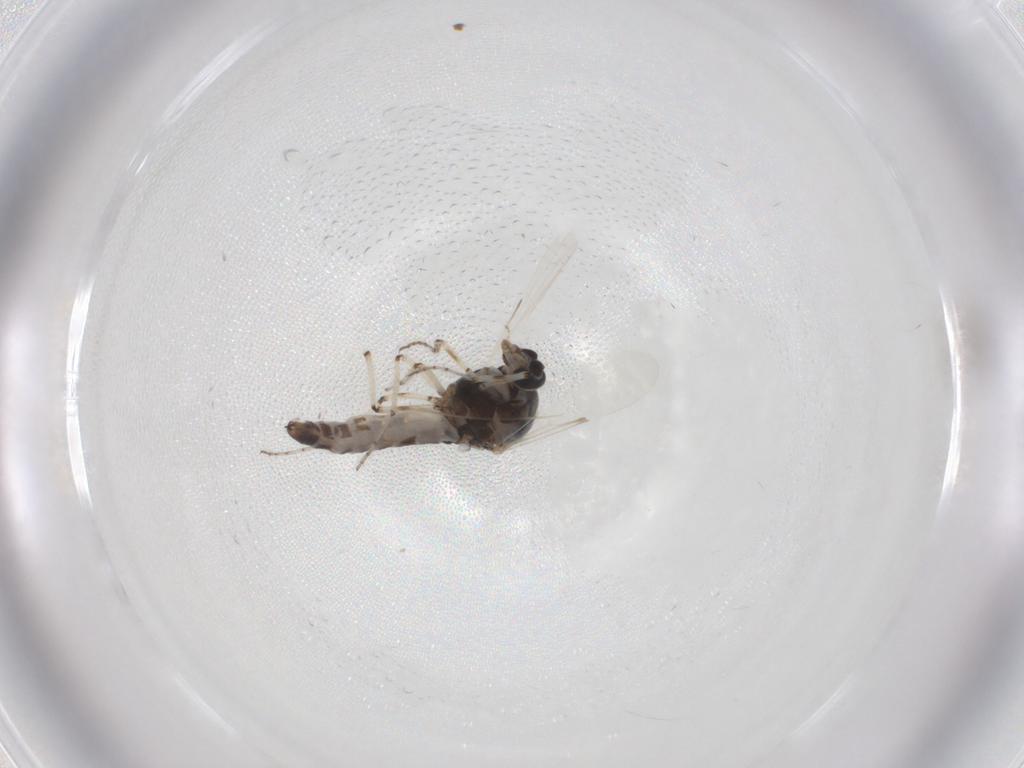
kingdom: Animalia
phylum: Arthropoda
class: Insecta
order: Diptera
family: Ceratopogonidae
